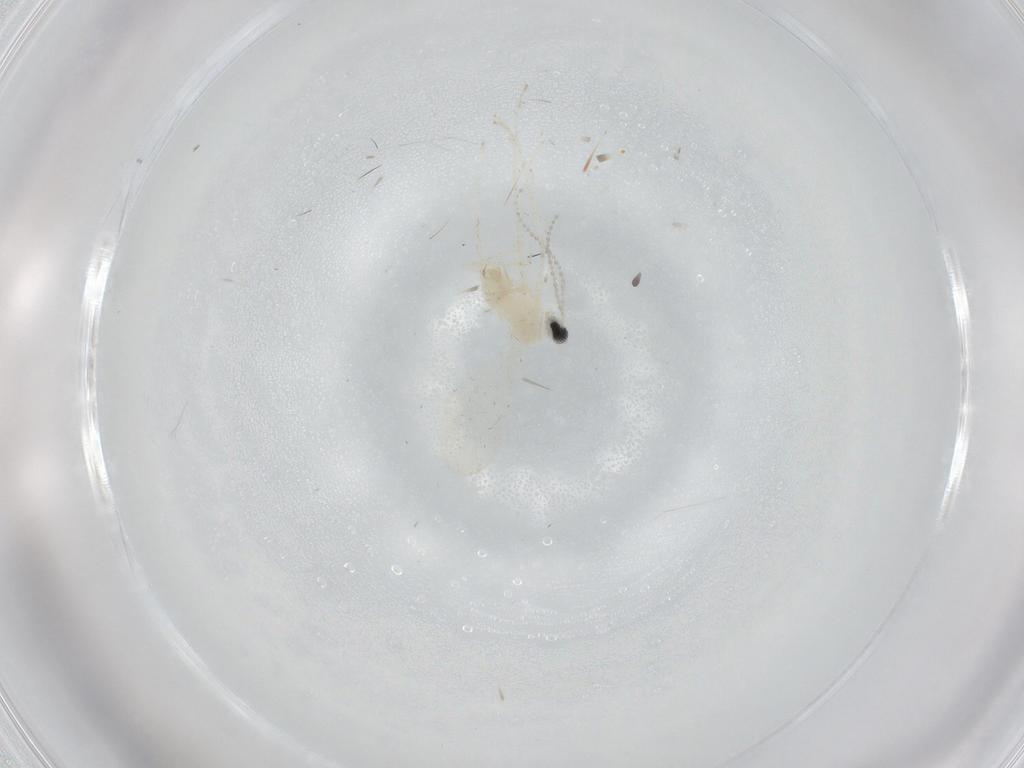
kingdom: Animalia
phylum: Arthropoda
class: Insecta
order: Diptera
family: Cecidomyiidae
